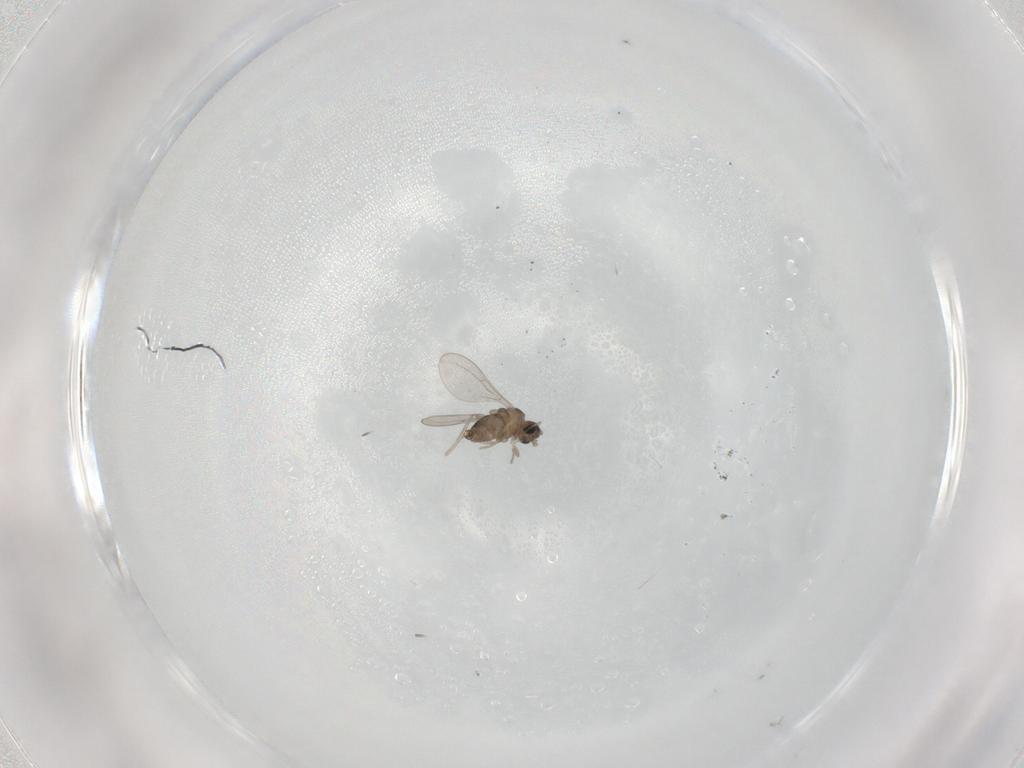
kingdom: Animalia
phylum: Arthropoda
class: Insecta
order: Diptera
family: Cecidomyiidae
